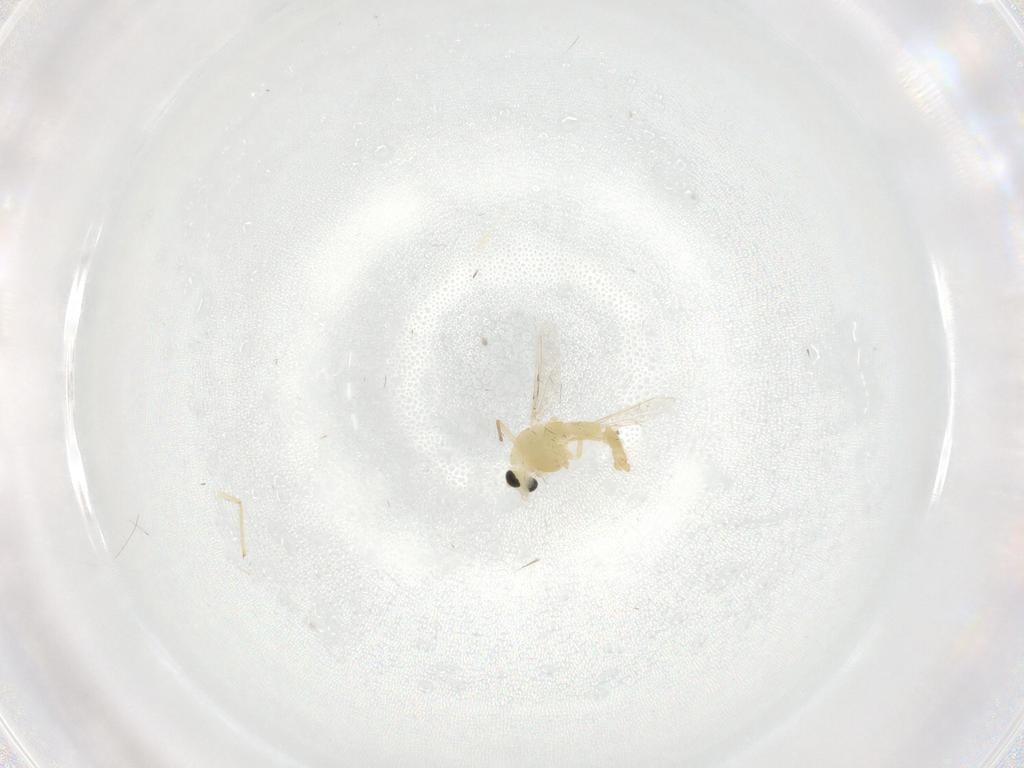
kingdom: Animalia
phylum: Arthropoda
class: Insecta
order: Diptera
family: Chironomidae
